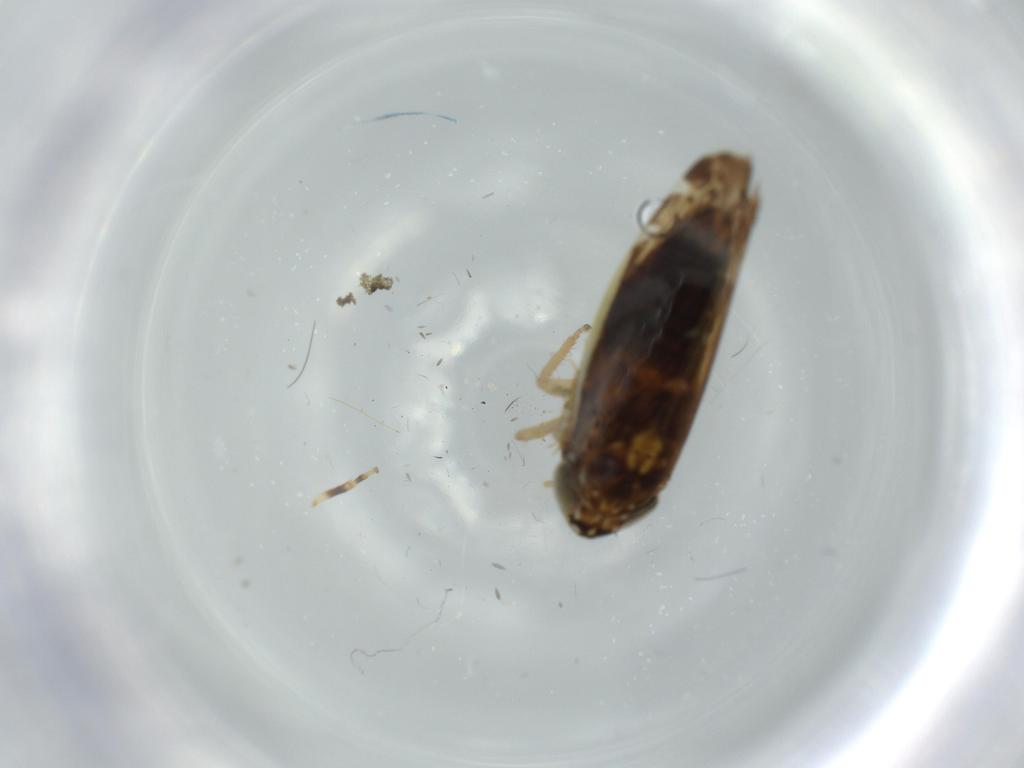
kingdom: Animalia
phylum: Arthropoda
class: Insecta
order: Hemiptera
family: Cicadellidae
